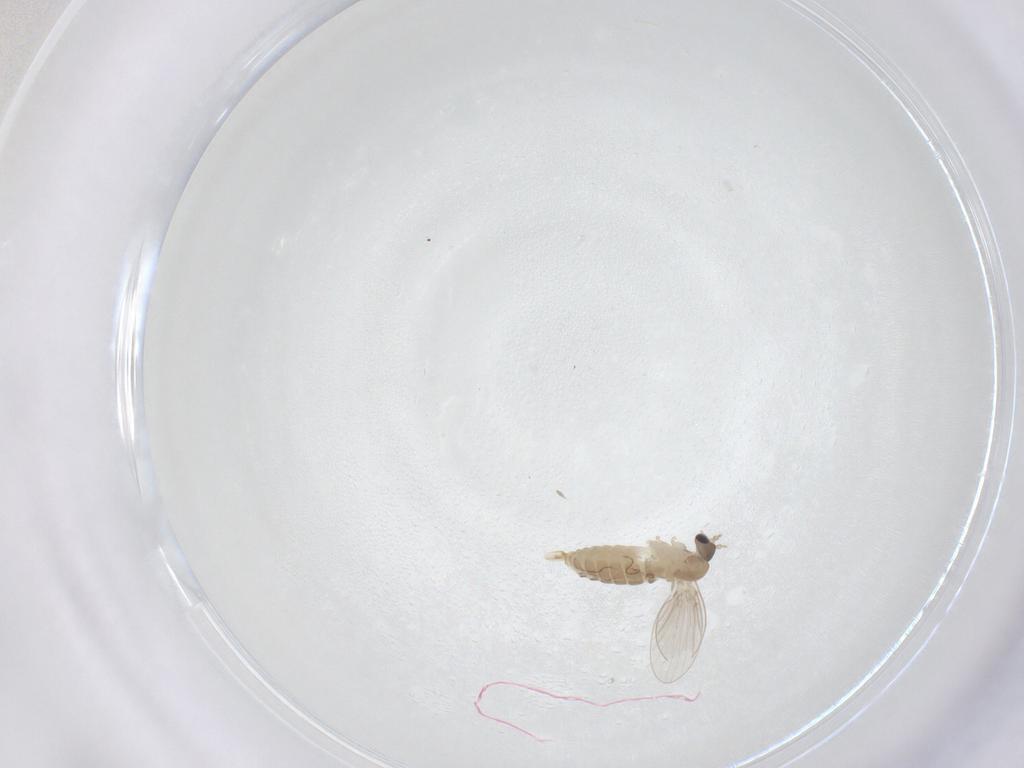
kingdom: Animalia
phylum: Arthropoda
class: Insecta
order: Diptera
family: Psychodidae
